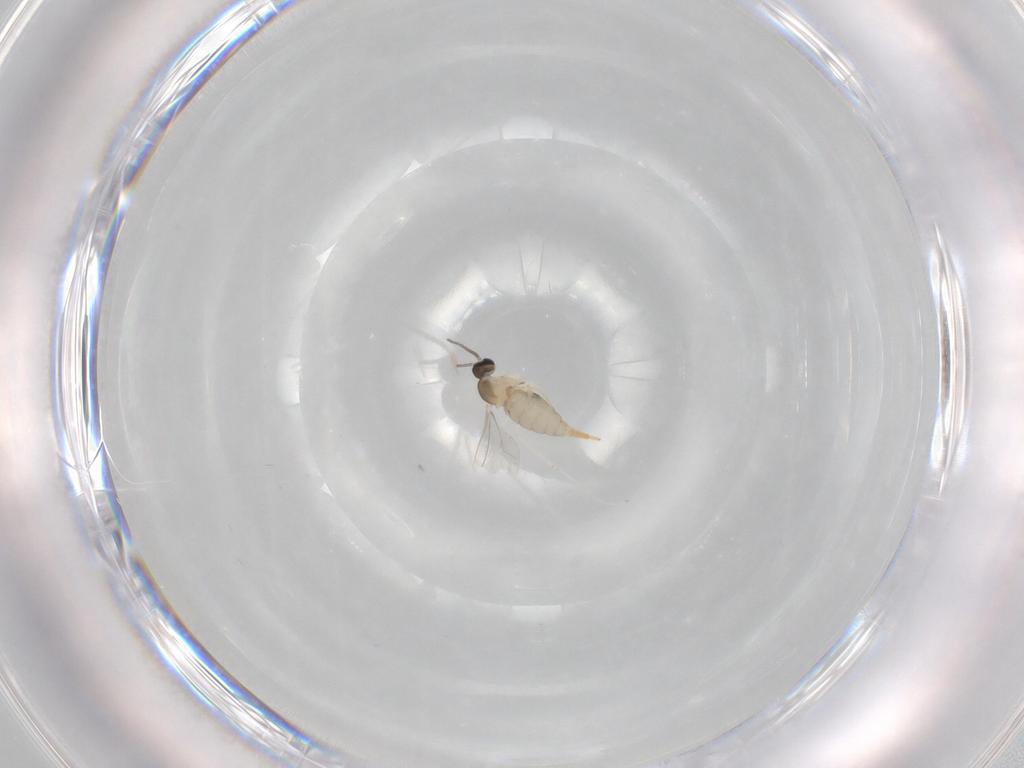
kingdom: Animalia
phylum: Arthropoda
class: Insecta
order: Diptera
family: Cecidomyiidae
